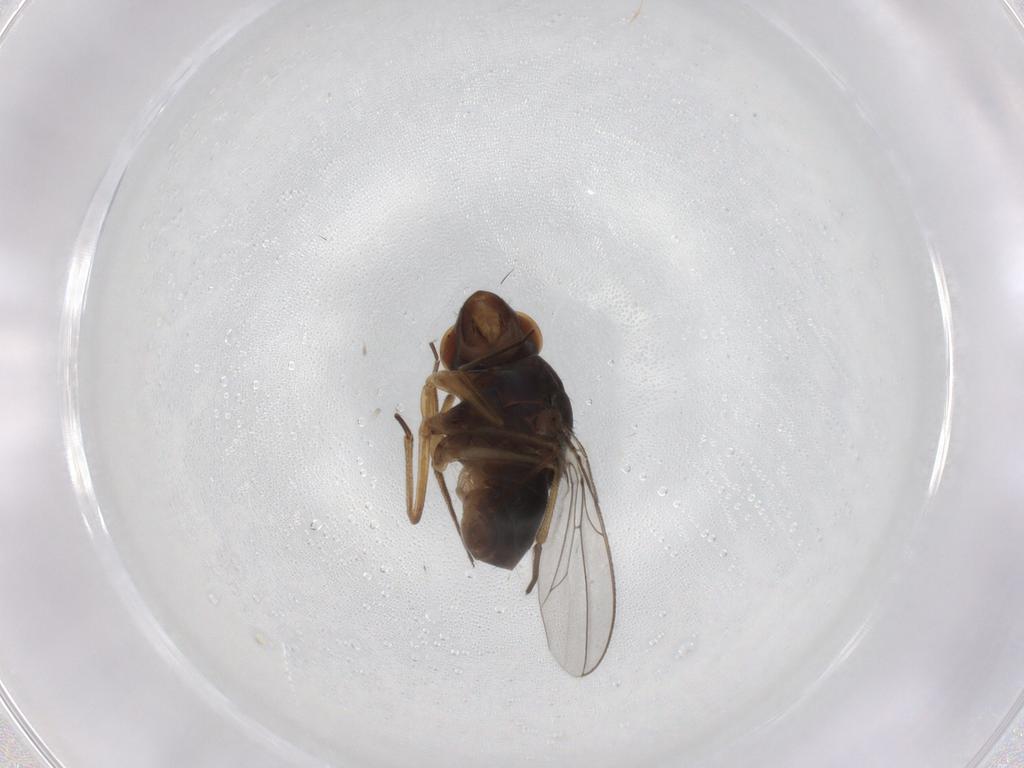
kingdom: Animalia
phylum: Arthropoda
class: Insecta
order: Diptera
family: Ephydridae
